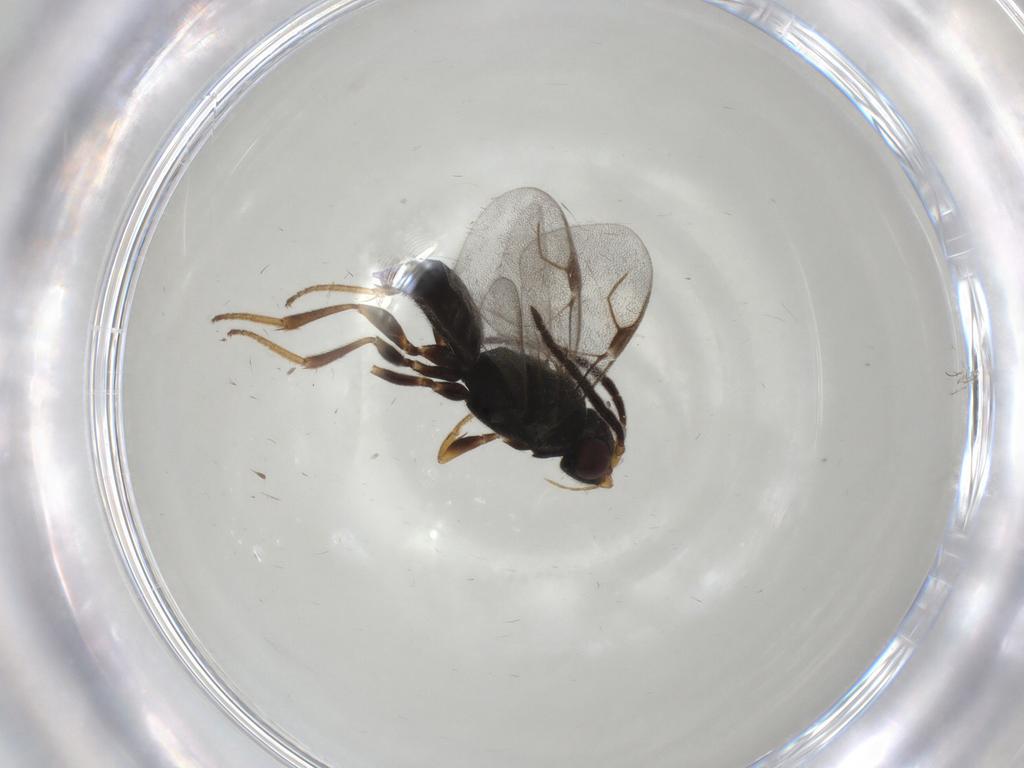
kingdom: Animalia
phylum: Arthropoda
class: Insecta
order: Hymenoptera
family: Dryinidae
